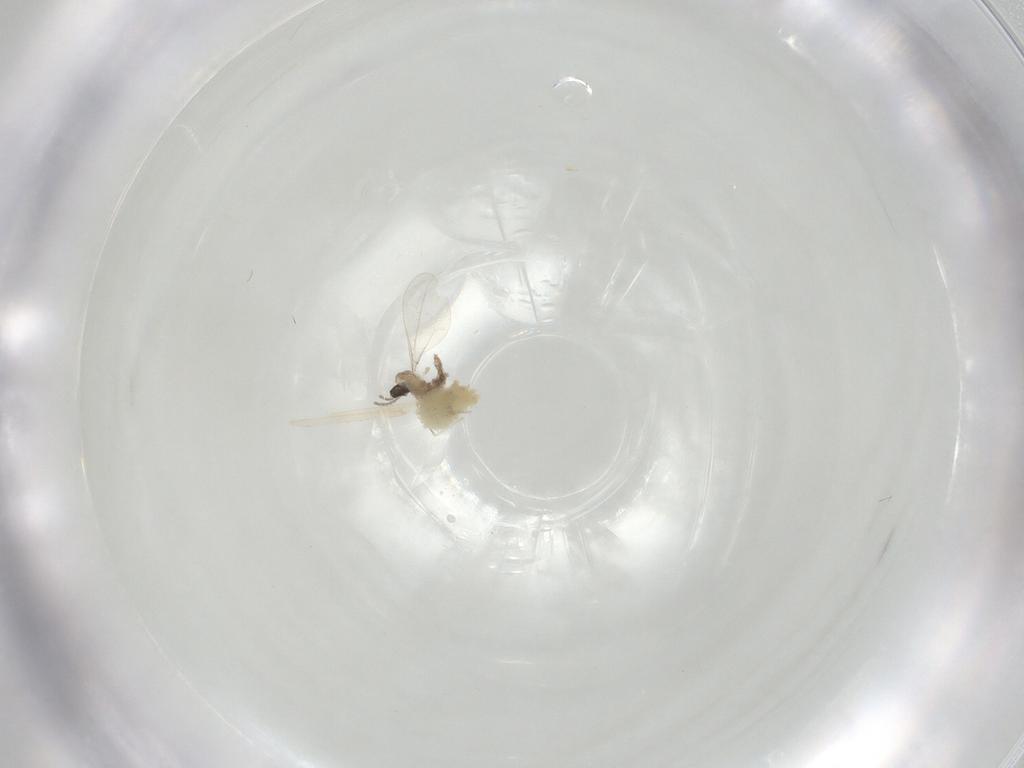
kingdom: Animalia
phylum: Arthropoda
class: Insecta
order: Diptera
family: Cecidomyiidae
